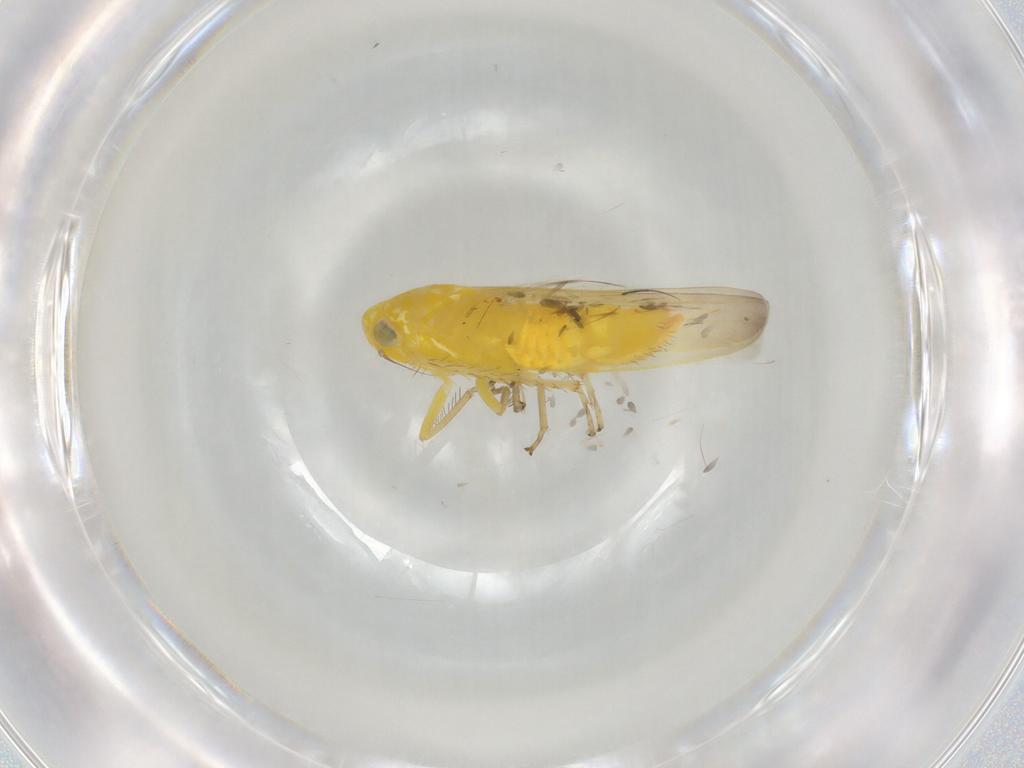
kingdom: Animalia
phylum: Arthropoda
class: Insecta
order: Hemiptera
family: Cicadellidae
